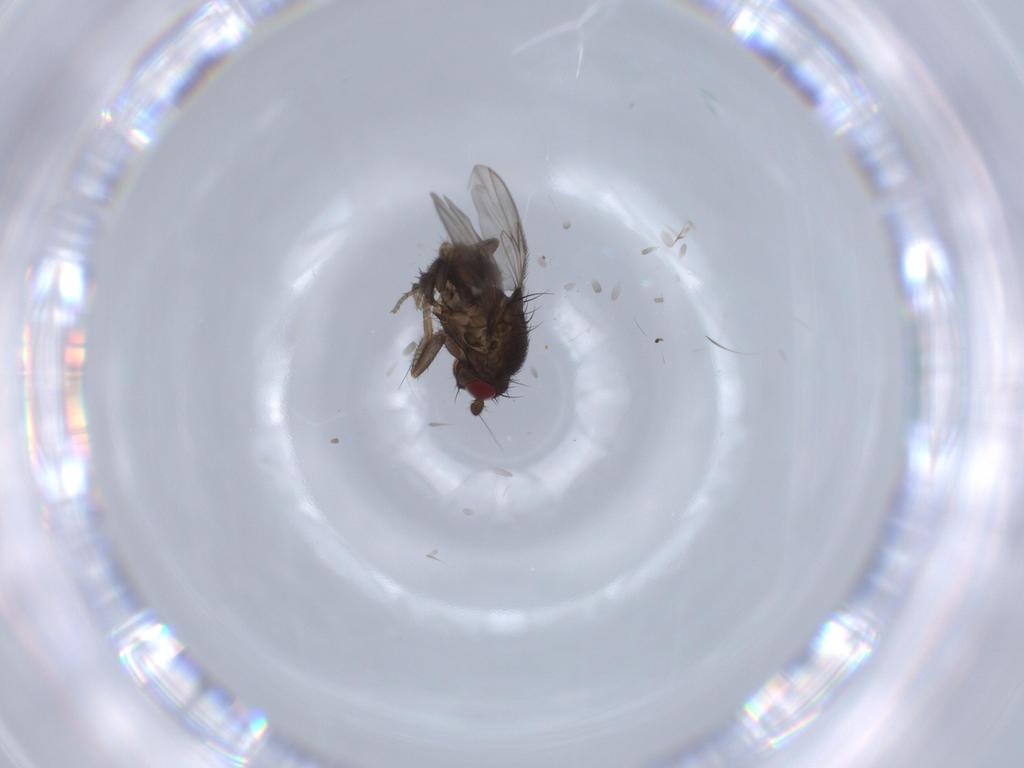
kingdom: Animalia
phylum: Arthropoda
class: Insecta
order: Diptera
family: Sphaeroceridae
